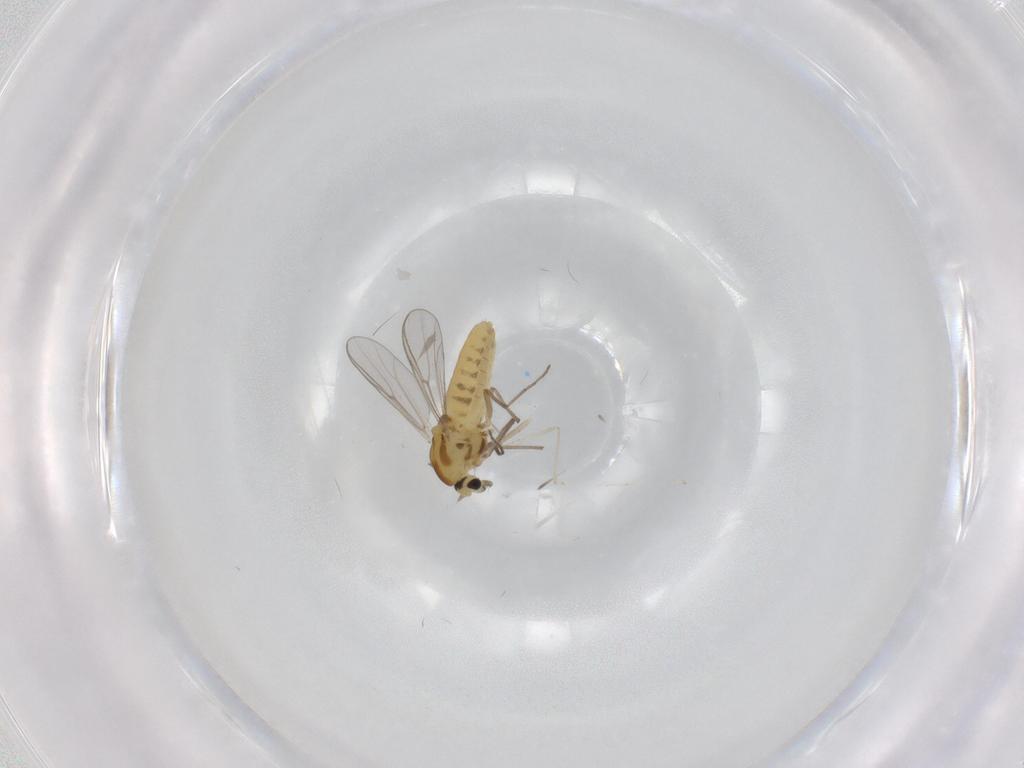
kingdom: Animalia
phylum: Arthropoda
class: Insecta
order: Diptera
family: Chironomidae
